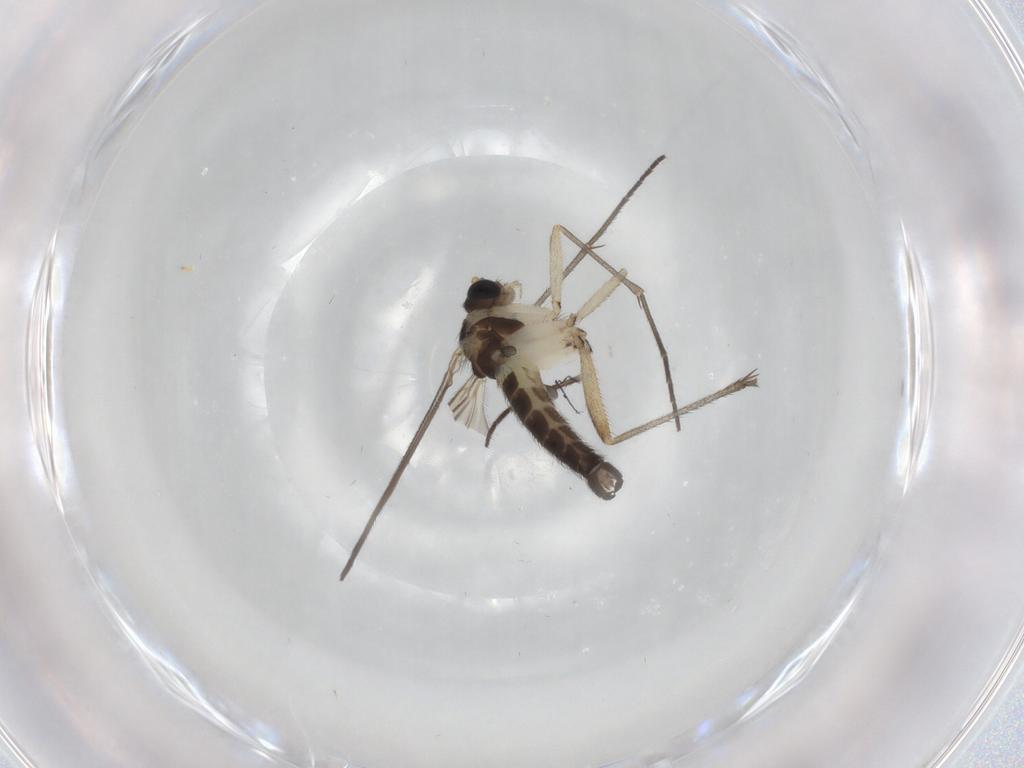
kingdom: Animalia
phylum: Arthropoda
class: Insecta
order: Diptera
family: Sciaridae
